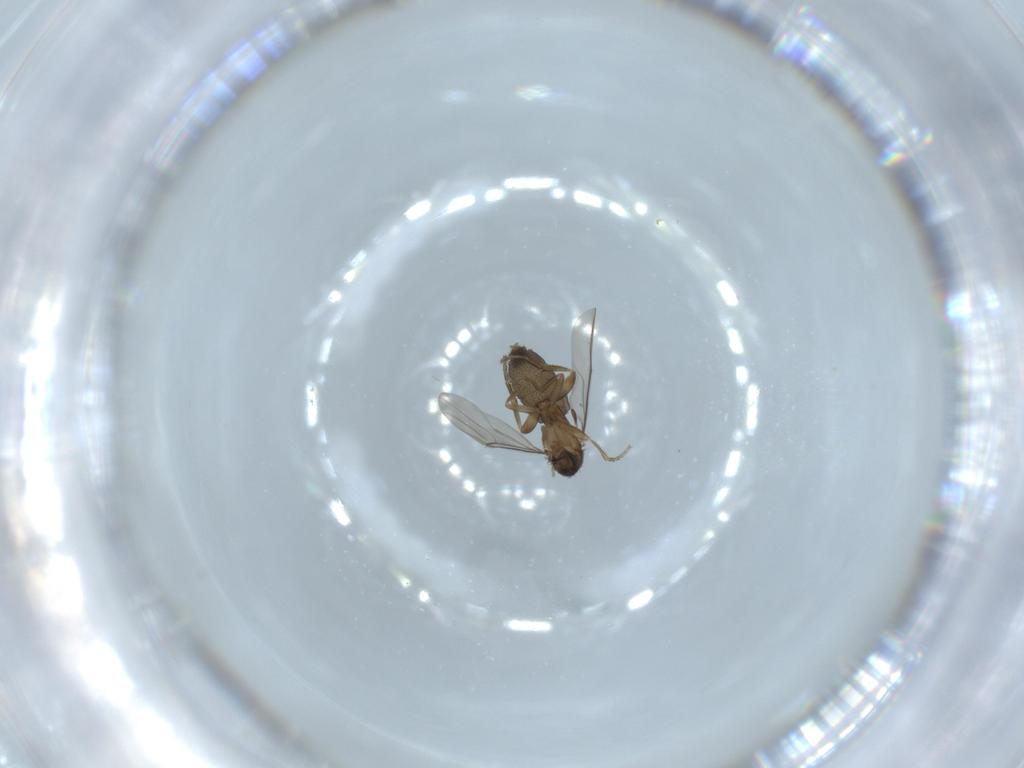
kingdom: Animalia
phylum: Arthropoda
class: Insecta
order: Diptera
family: Phoridae
